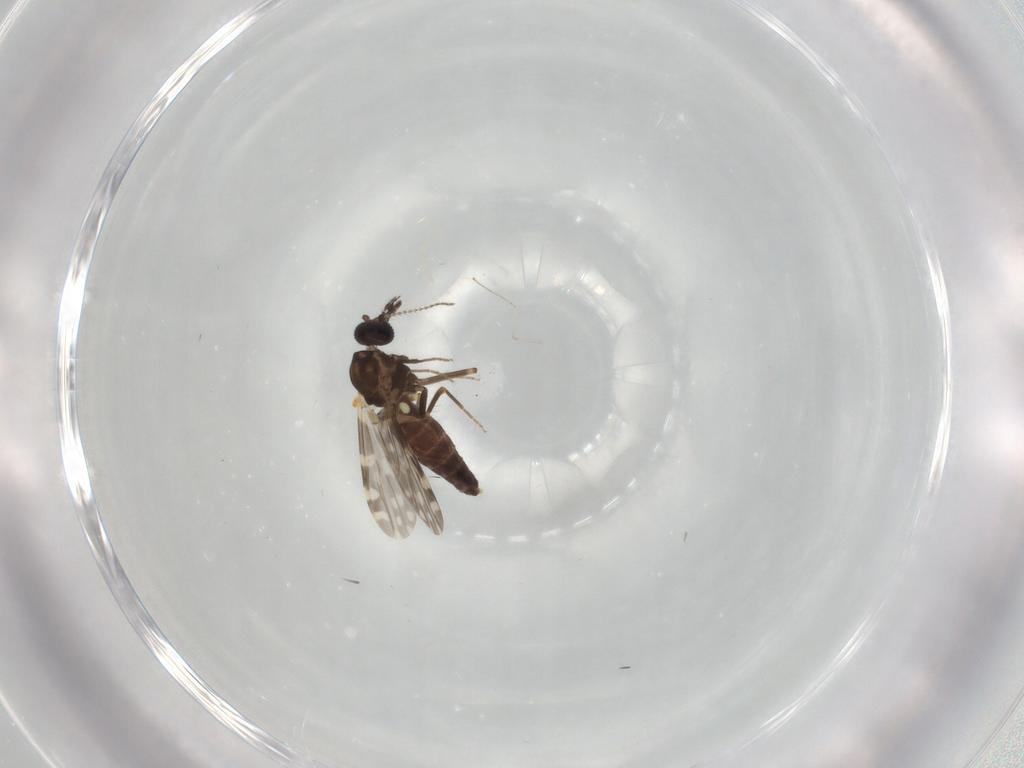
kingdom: Animalia
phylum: Arthropoda
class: Insecta
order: Diptera
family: Ceratopogonidae
